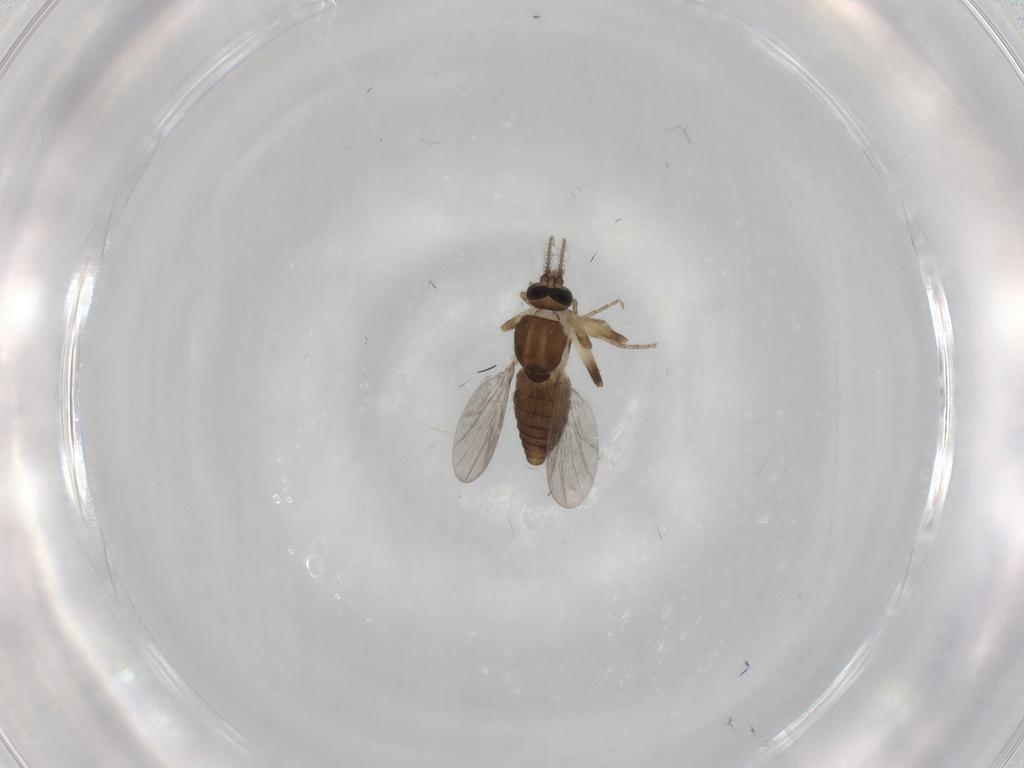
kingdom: Animalia
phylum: Arthropoda
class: Insecta
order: Diptera
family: Ceratopogonidae
